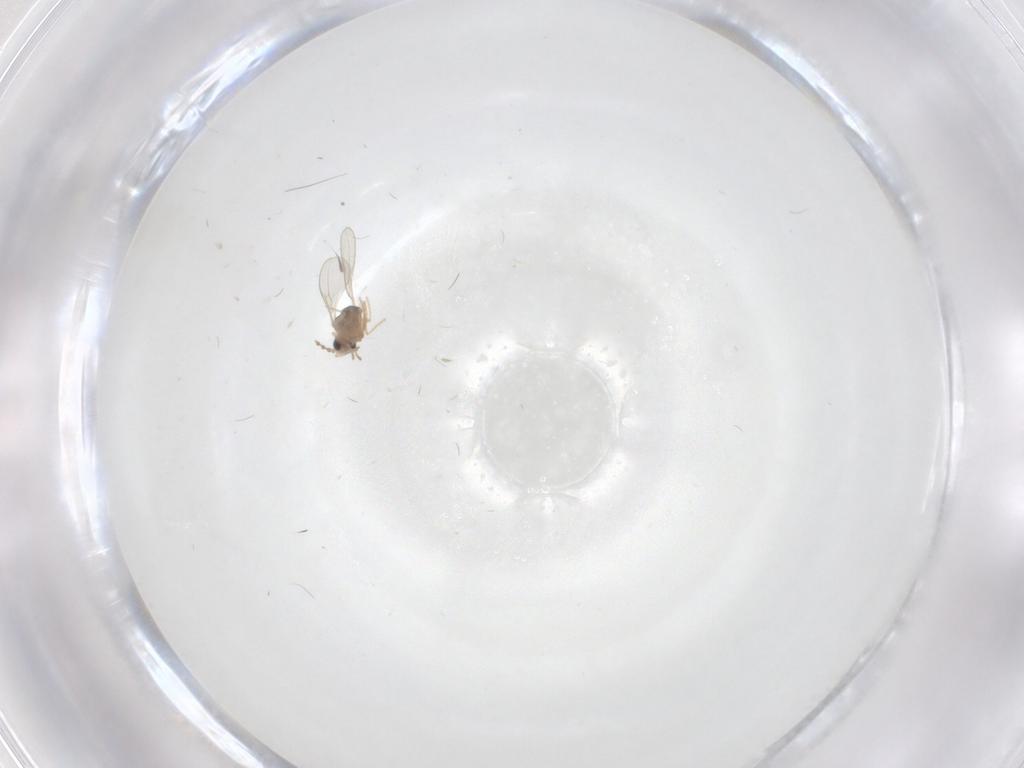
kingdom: Animalia
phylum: Arthropoda
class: Insecta
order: Diptera
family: Cecidomyiidae
